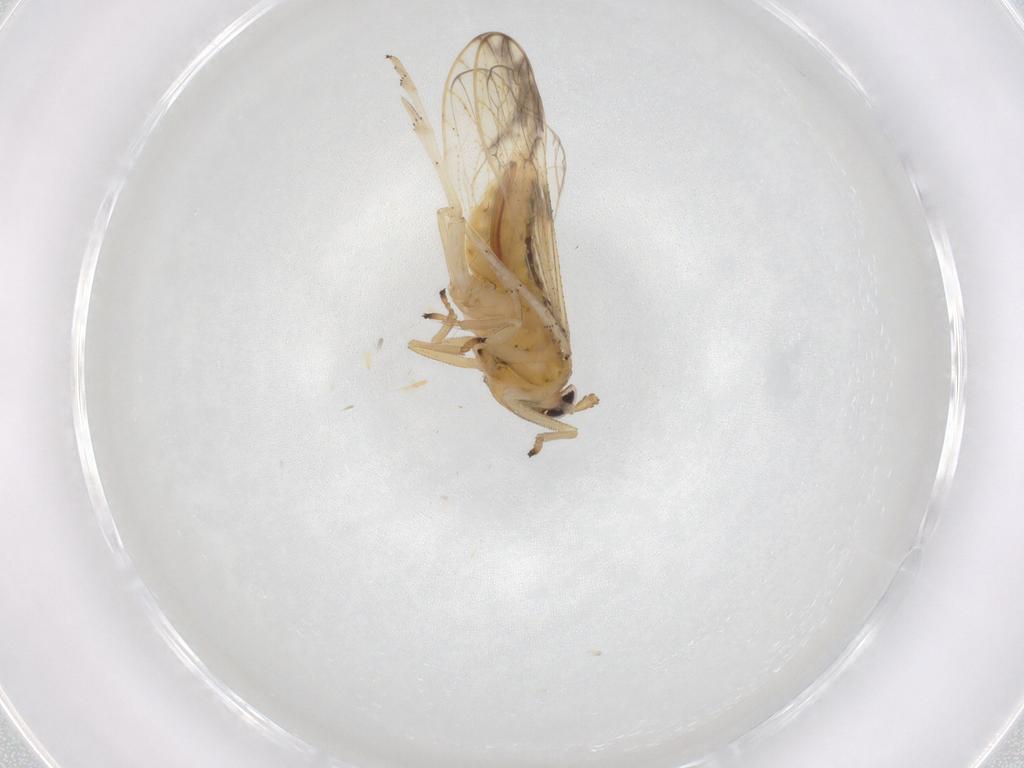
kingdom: Animalia
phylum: Arthropoda
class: Insecta
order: Hemiptera
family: Delphacidae
